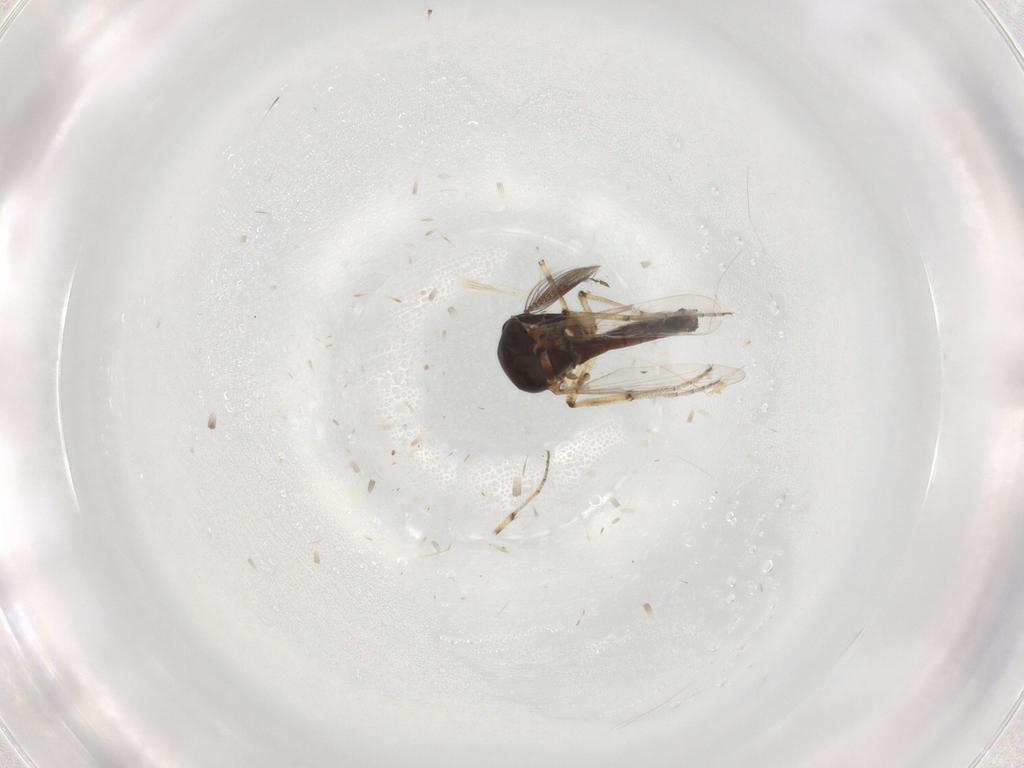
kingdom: Animalia
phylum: Arthropoda
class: Insecta
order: Diptera
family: Ceratopogonidae
